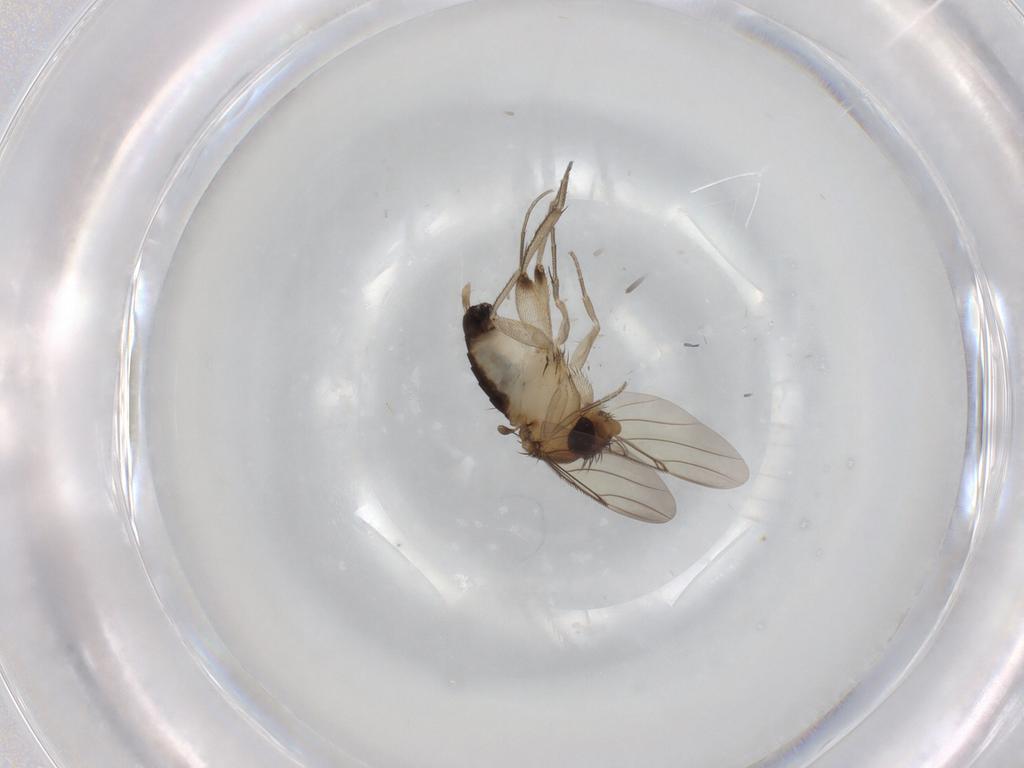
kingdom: Animalia
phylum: Arthropoda
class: Insecta
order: Diptera
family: Phoridae
